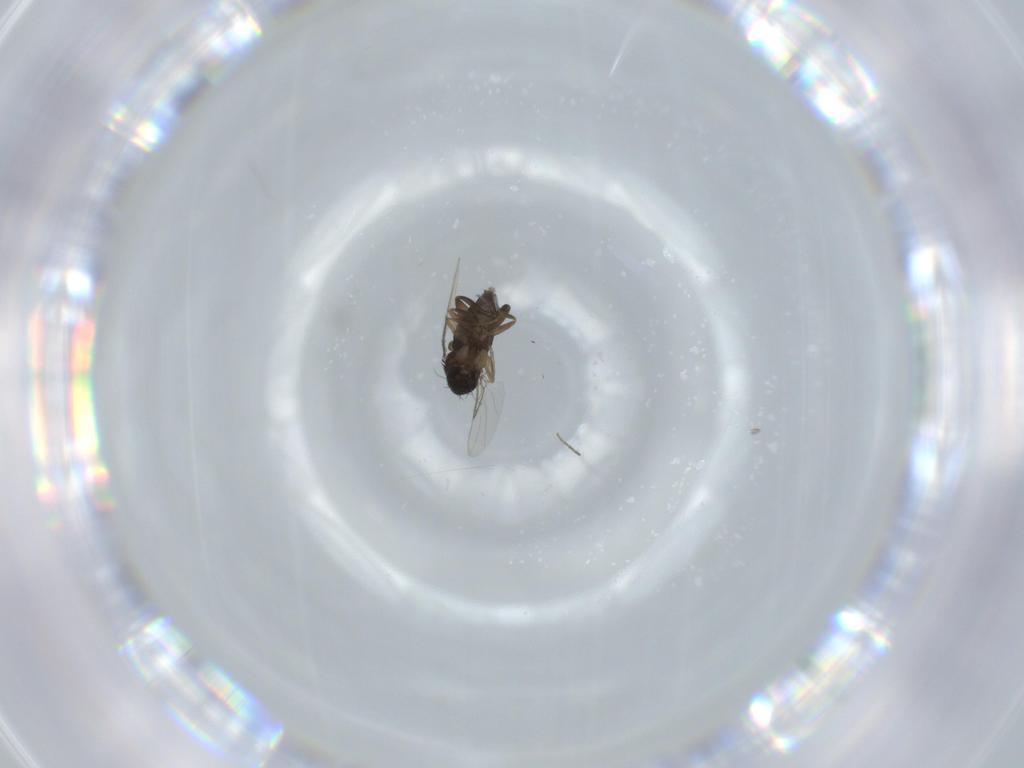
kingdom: Animalia
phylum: Arthropoda
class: Insecta
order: Diptera
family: Phoridae
